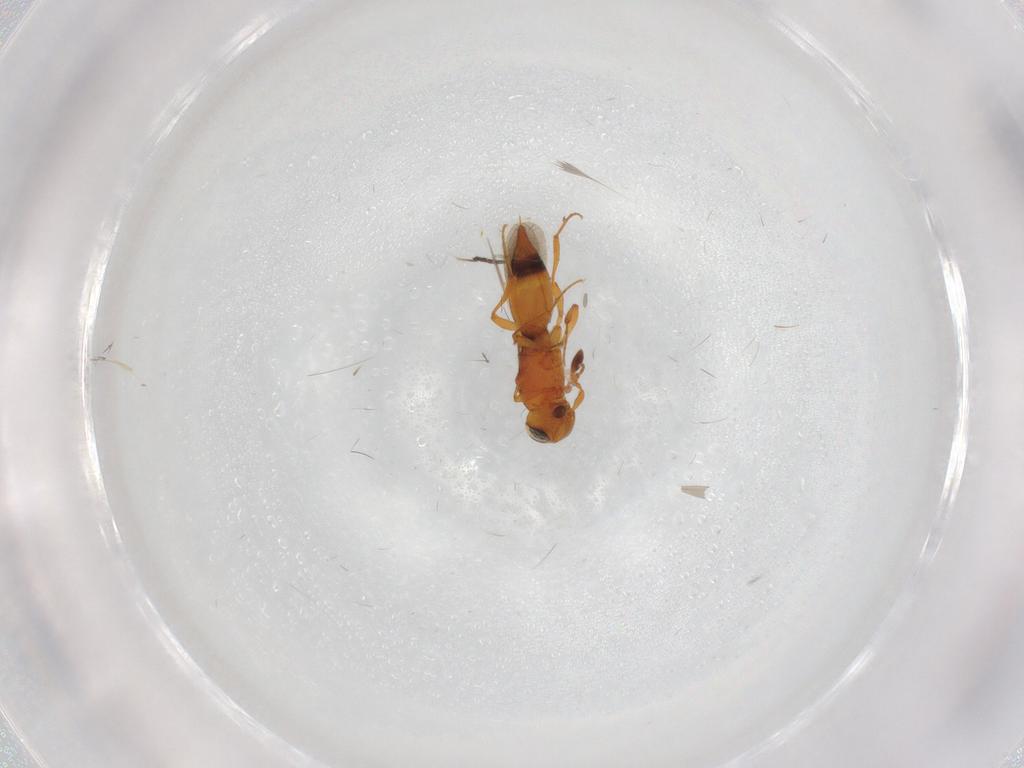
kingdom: Animalia
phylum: Arthropoda
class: Insecta
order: Hymenoptera
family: Platygastridae
